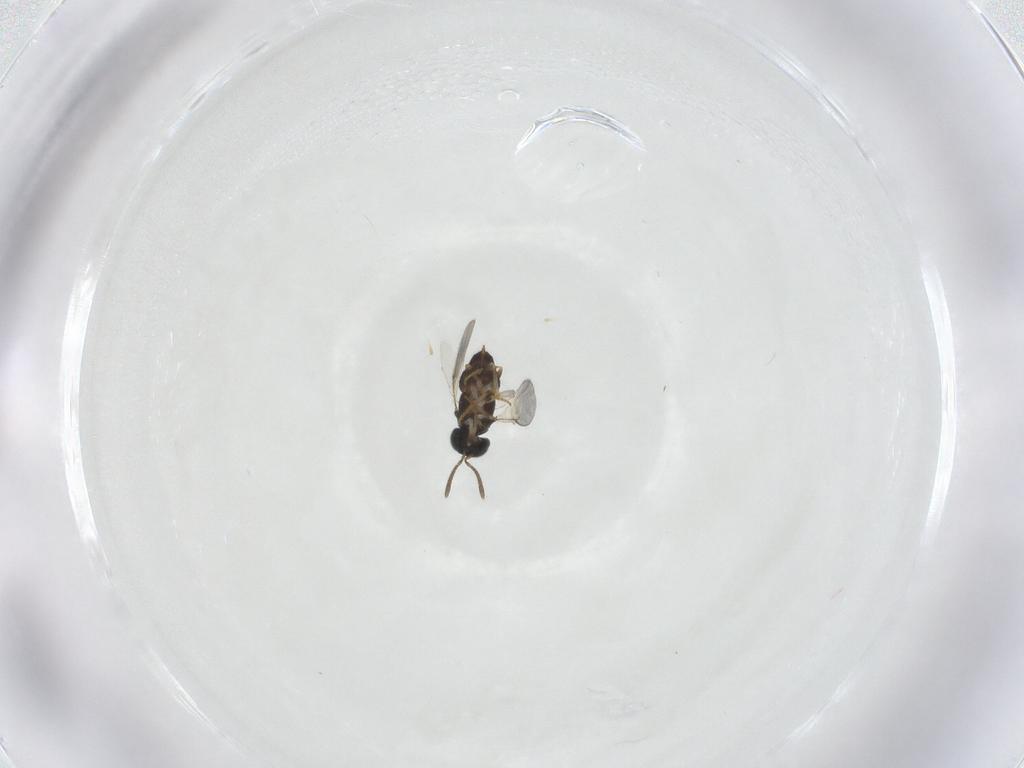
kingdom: Animalia
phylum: Arthropoda
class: Insecta
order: Hymenoptera
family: Encyrtidae
